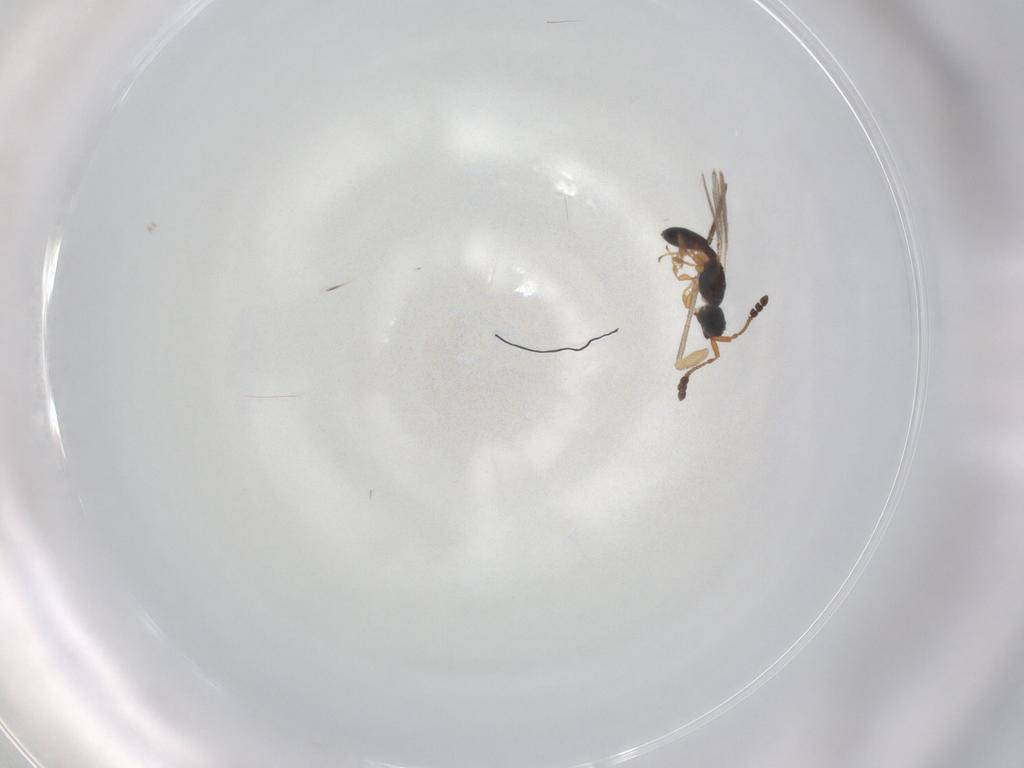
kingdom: Animalia
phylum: Arthropoda
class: Insecta
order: Hymenoptera
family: Diapriidae
